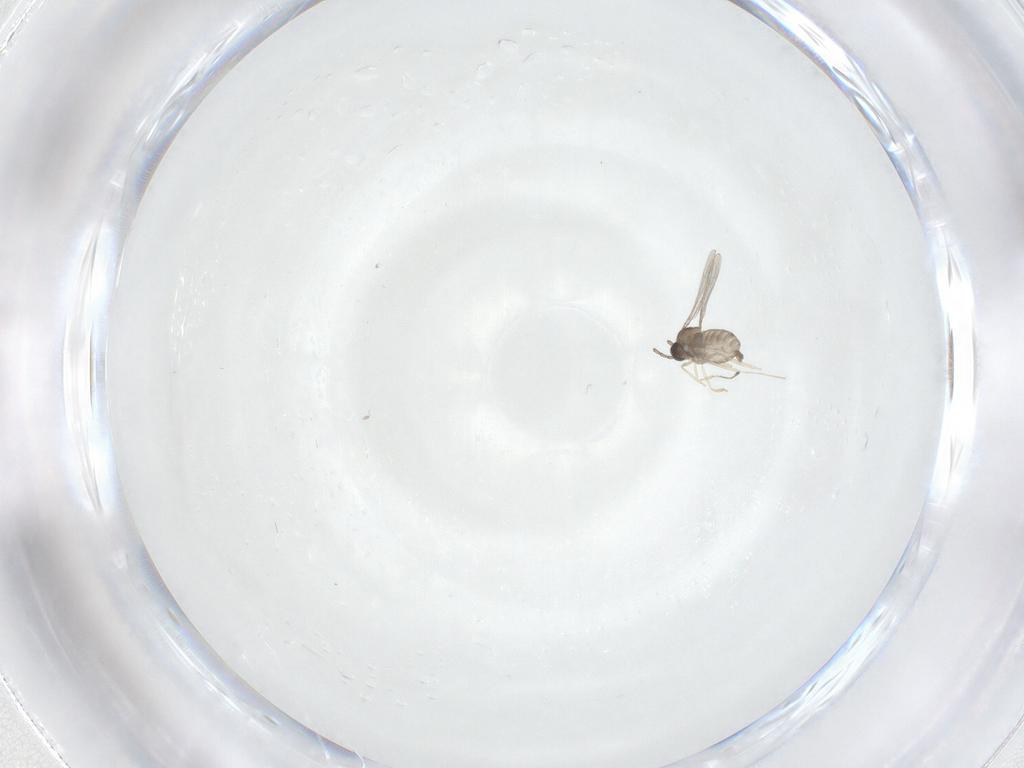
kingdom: Animalia
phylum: Arthropoda
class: Insecta
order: Diptera
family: Cecidomyiidae
